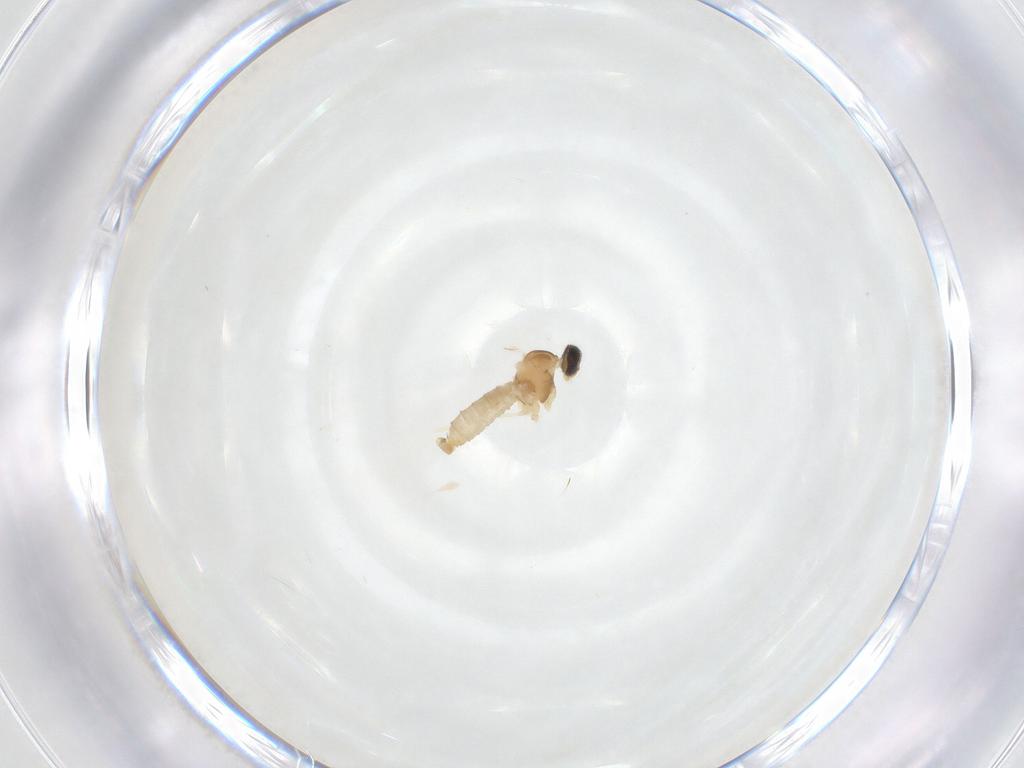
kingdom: Animalia
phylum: Arthropoda
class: Insecta
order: Diptera
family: Cecidomyiidae
